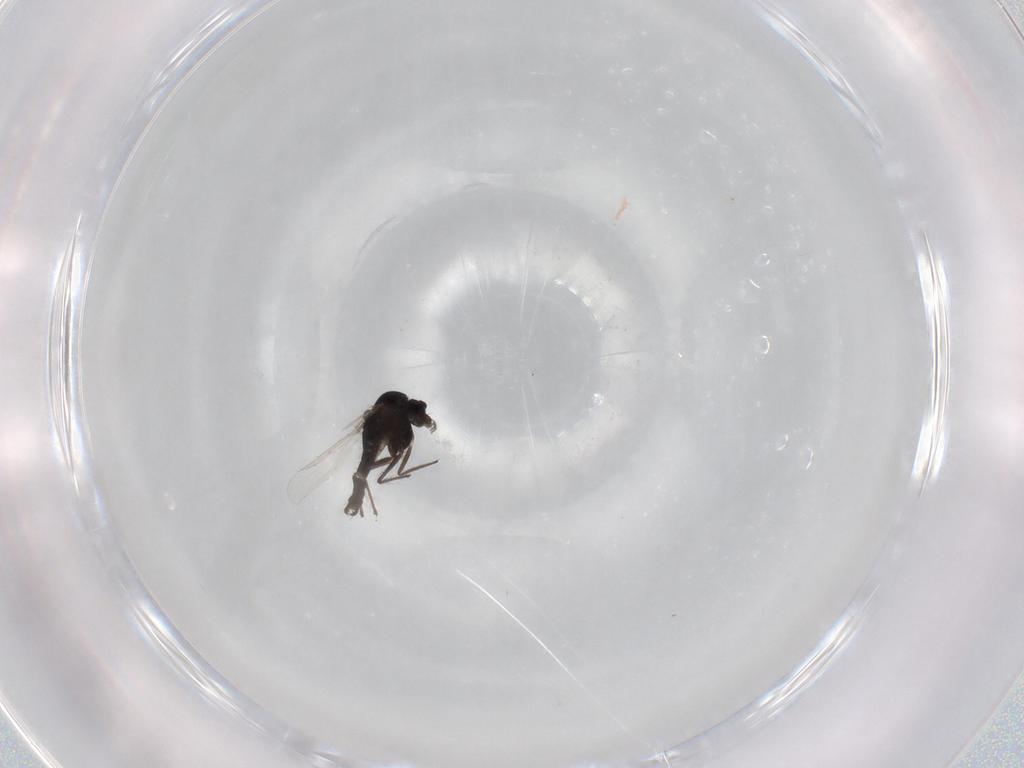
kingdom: Animalia
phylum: Arthropoda
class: Insecta
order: Diptera
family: Chironomidae
